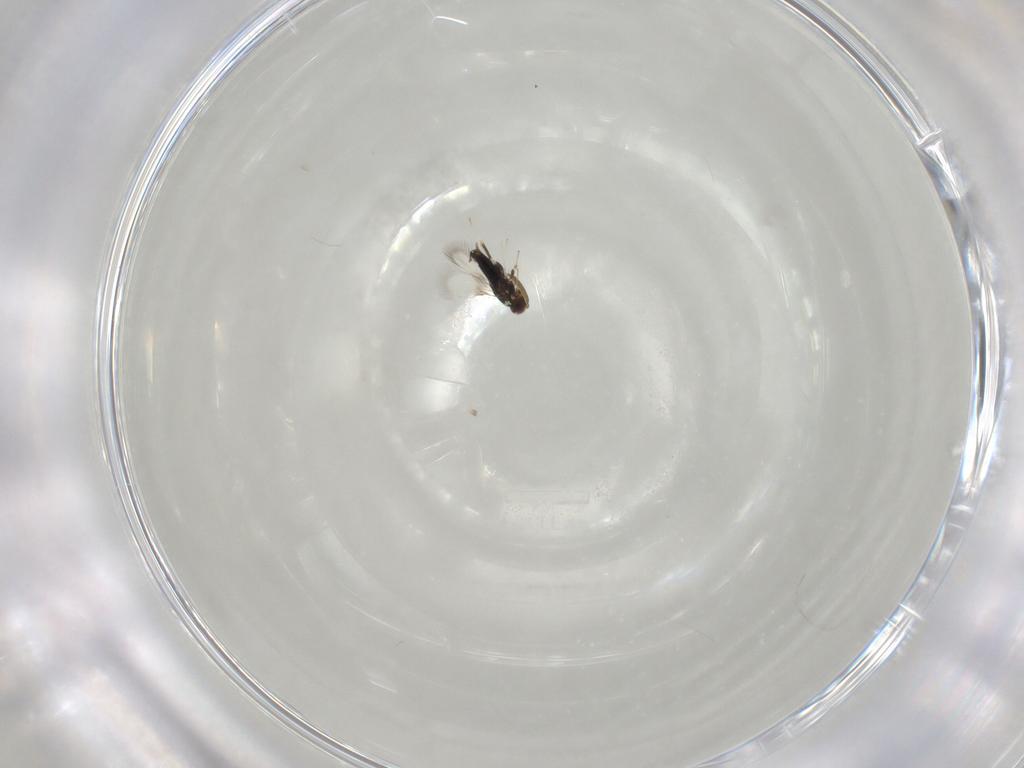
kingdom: Animalia
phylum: Arthropoda
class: Insecta
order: Hymenoptera
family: Signiphoridae
